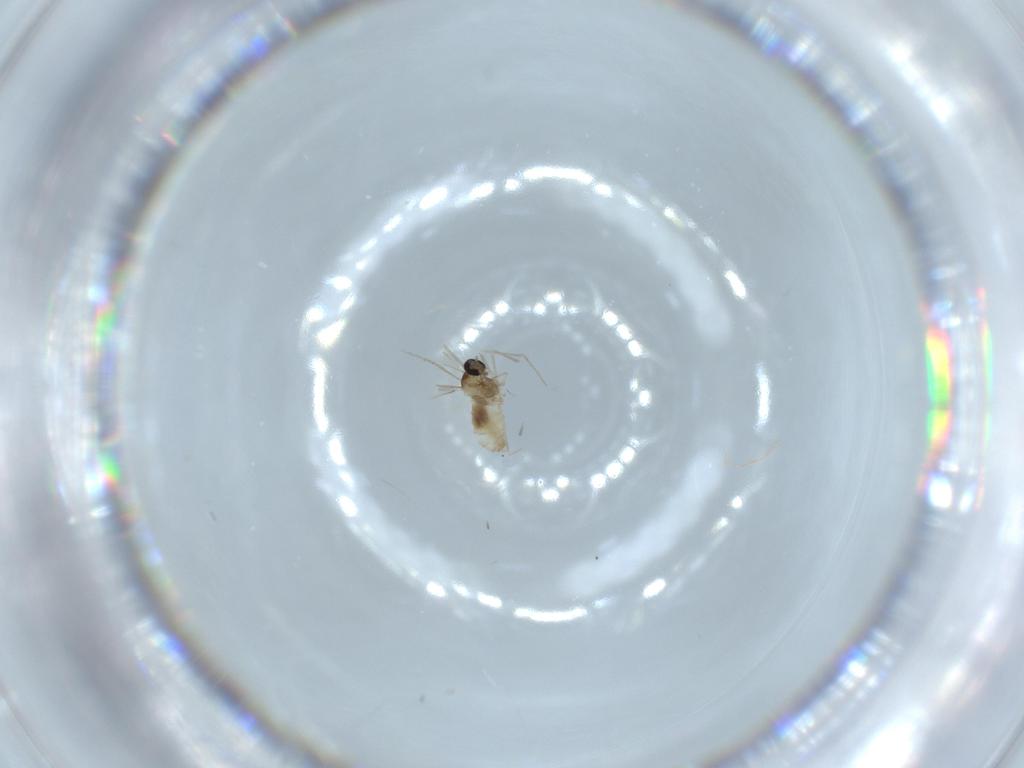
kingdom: Animalia
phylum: Arthropoda
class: Insecta
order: Diptera
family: Cecidomyiidae
